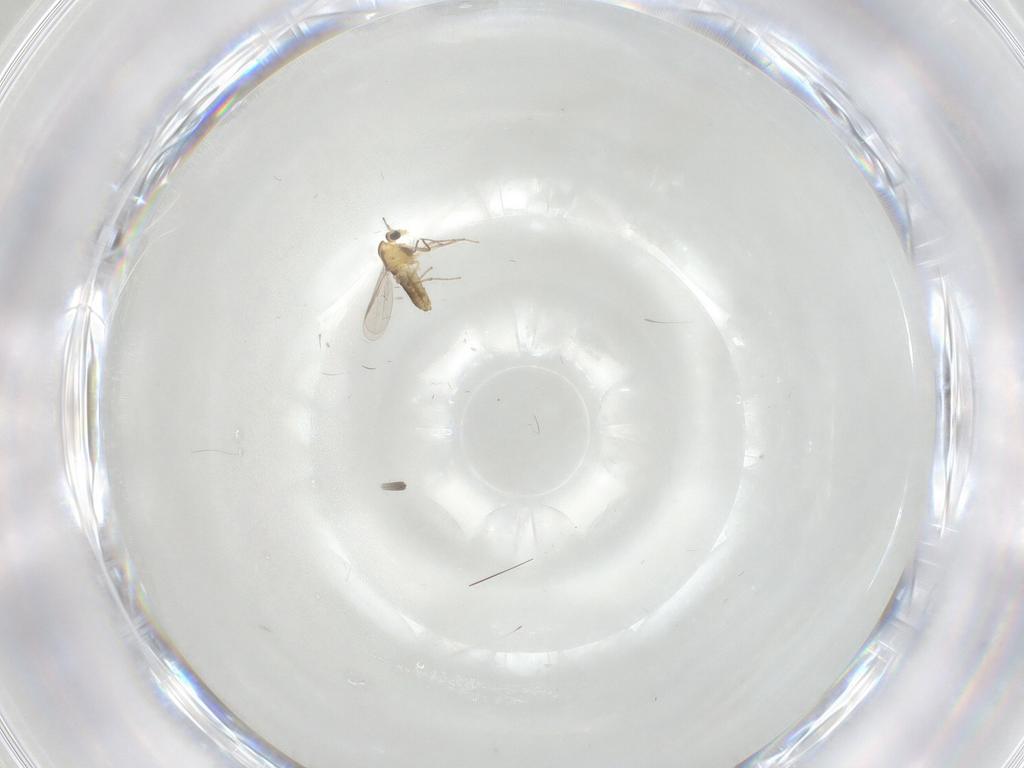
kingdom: Animalia
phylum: Arthropoda
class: Insecta
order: Diptera
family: Chironomidae
